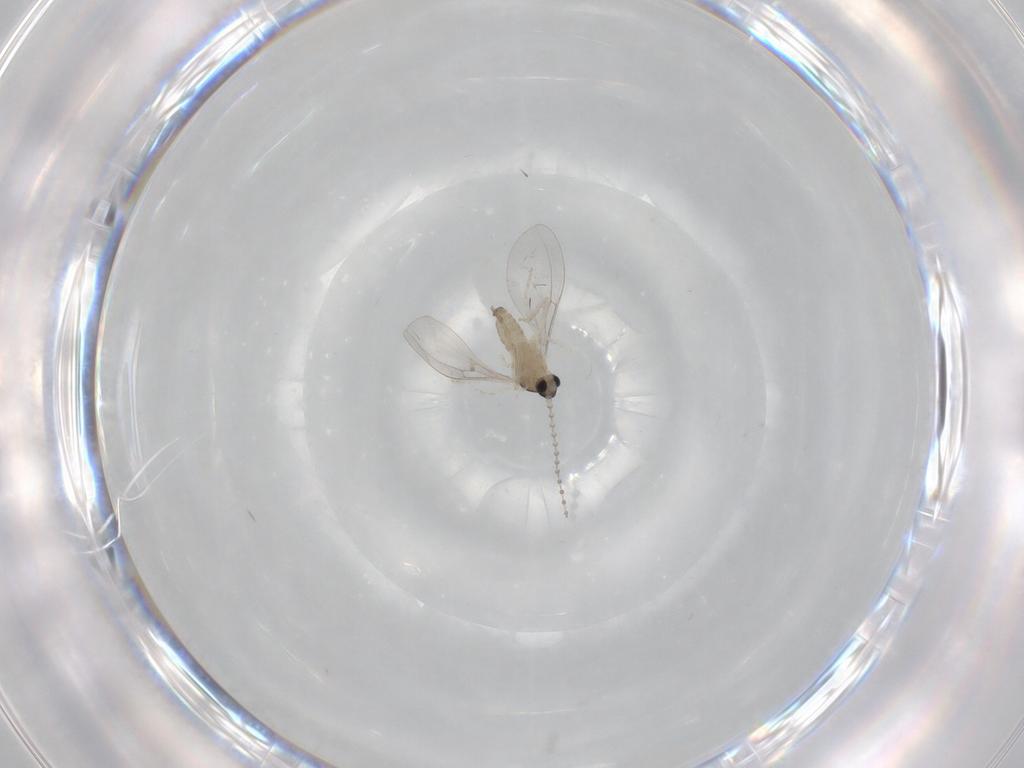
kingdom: Animalia
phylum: Arthropoda
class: Insecta
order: Diptera
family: Cecidomyiidae
